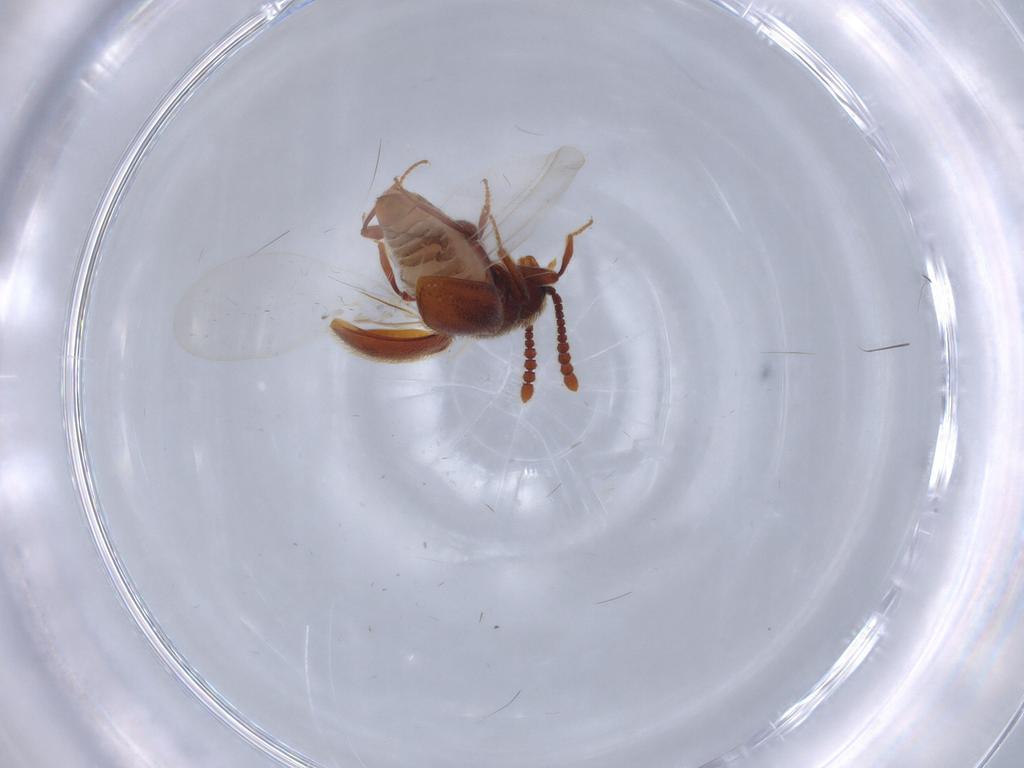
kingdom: Animalia
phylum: Arthropoda
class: Insecta
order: Coleoptera
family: Staphylinidae
